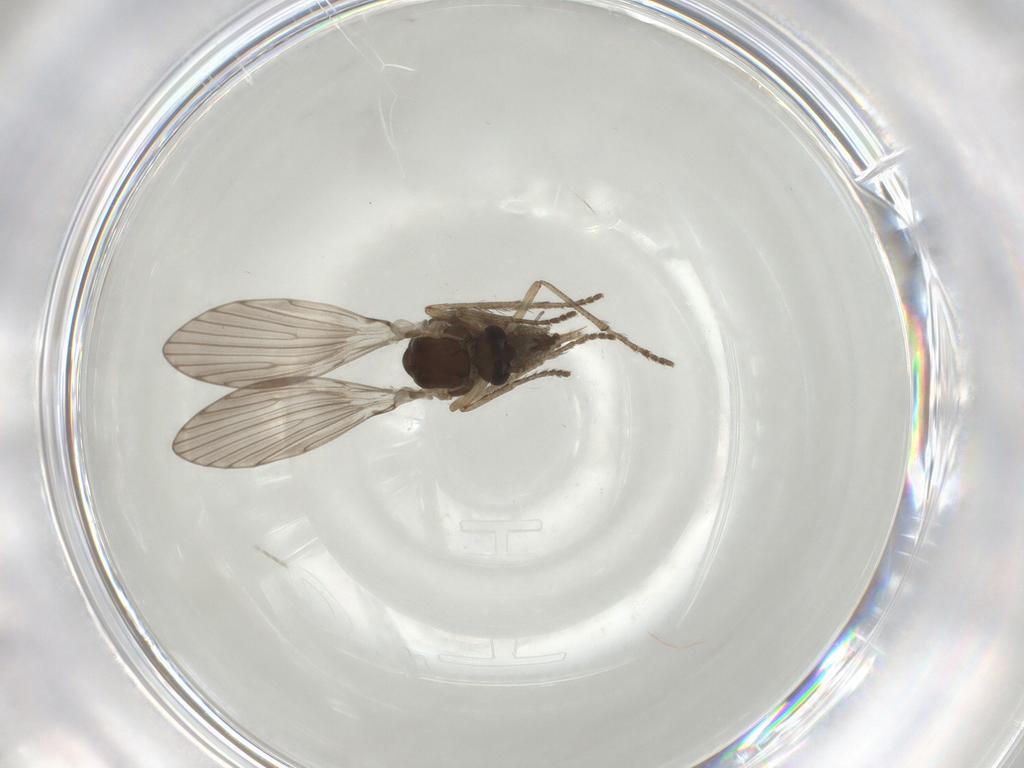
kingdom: Animalia
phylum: Arthropoda
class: Insecta
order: Diptera
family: Psychodidae
